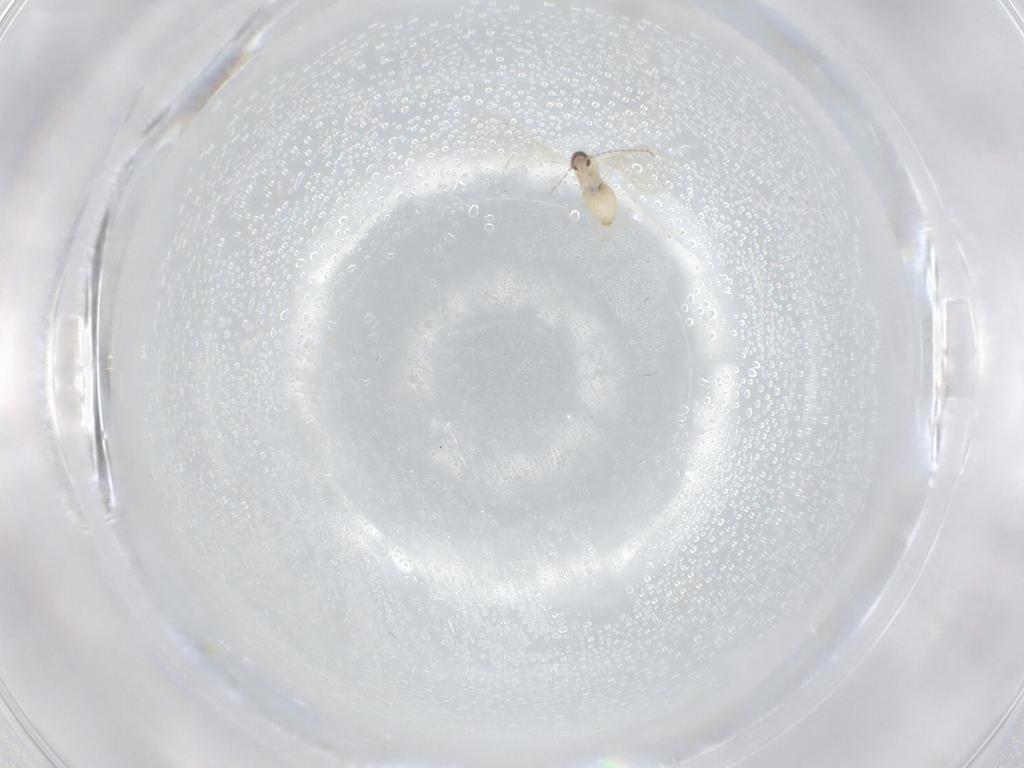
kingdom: Animalia
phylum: Arthropoda
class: Insecta
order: Diptera
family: Cecidomyiidae
